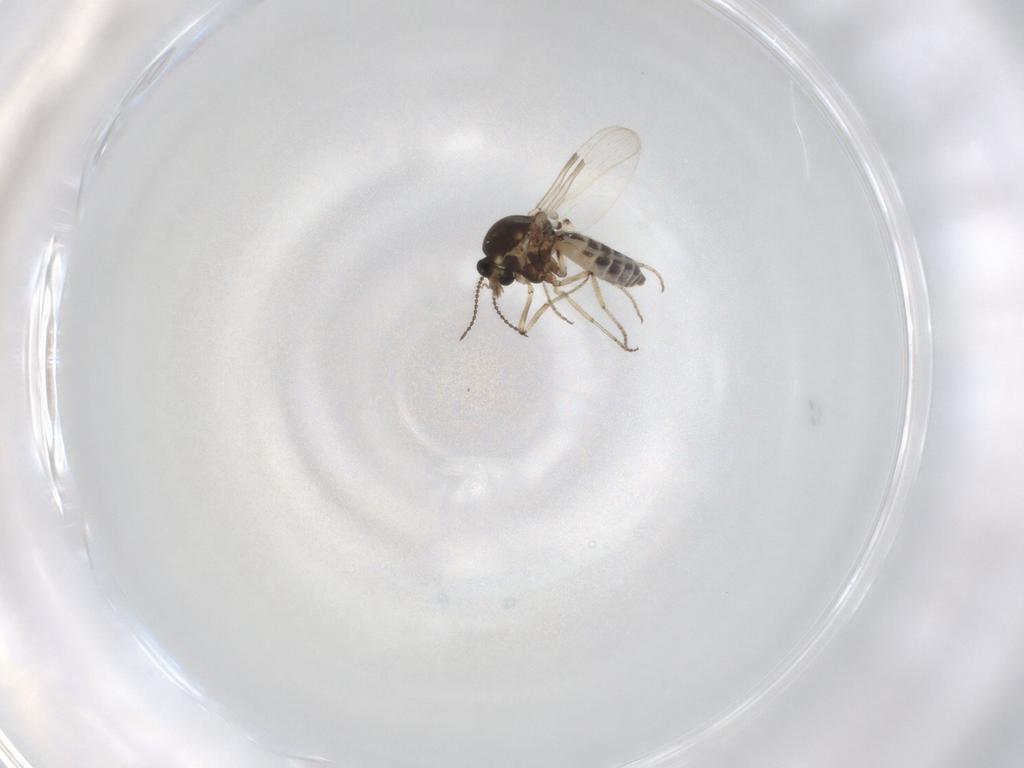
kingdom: Animalia
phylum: Arthropoda
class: Insecta
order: Diptera
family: Ceratopogonidae
